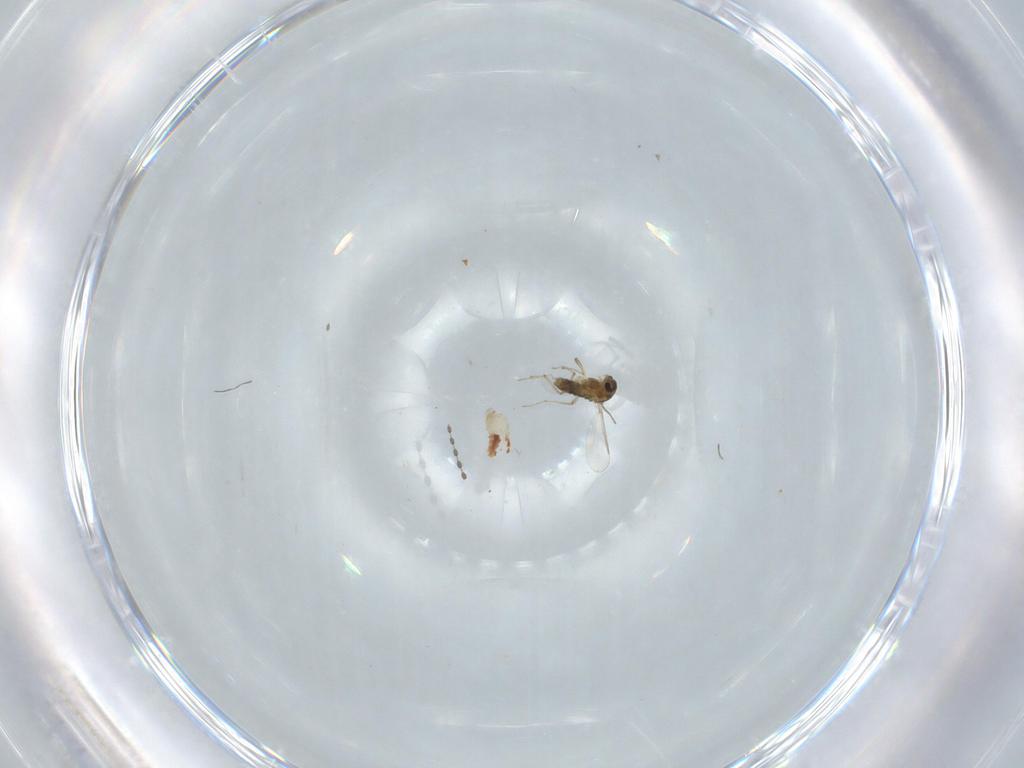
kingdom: Animalia
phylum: Arthropoda
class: Insecta
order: Diptera
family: Chironomidae
